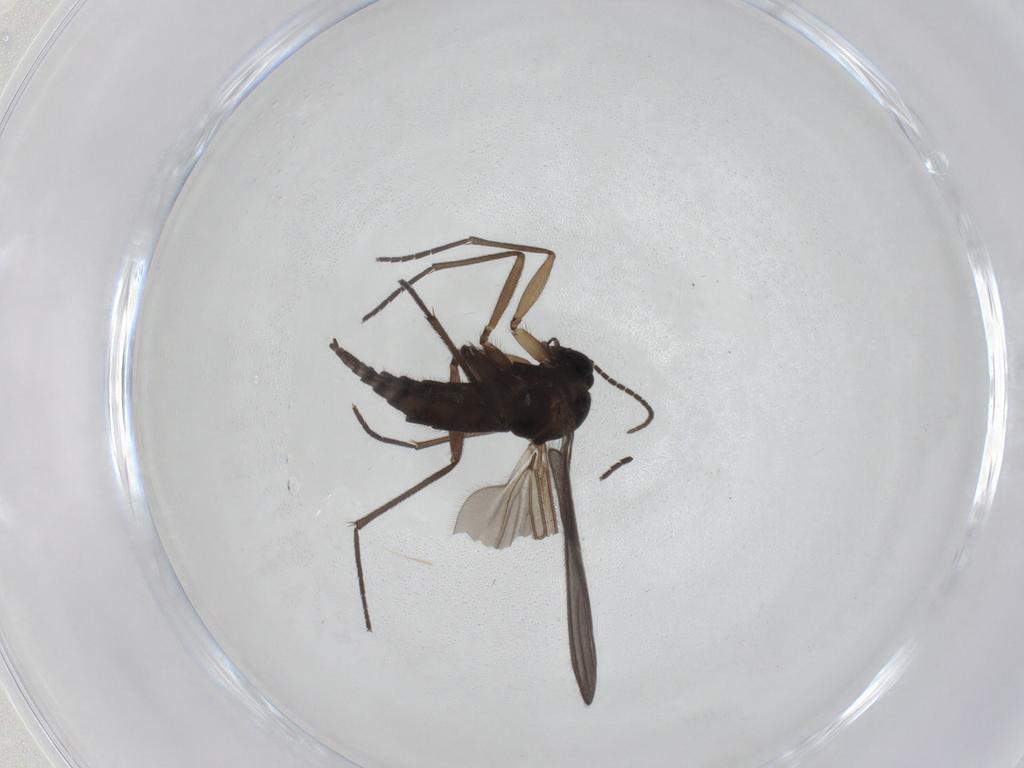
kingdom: Animalia
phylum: Arthropoda
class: Insecta
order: Diptera
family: Sciaridae
